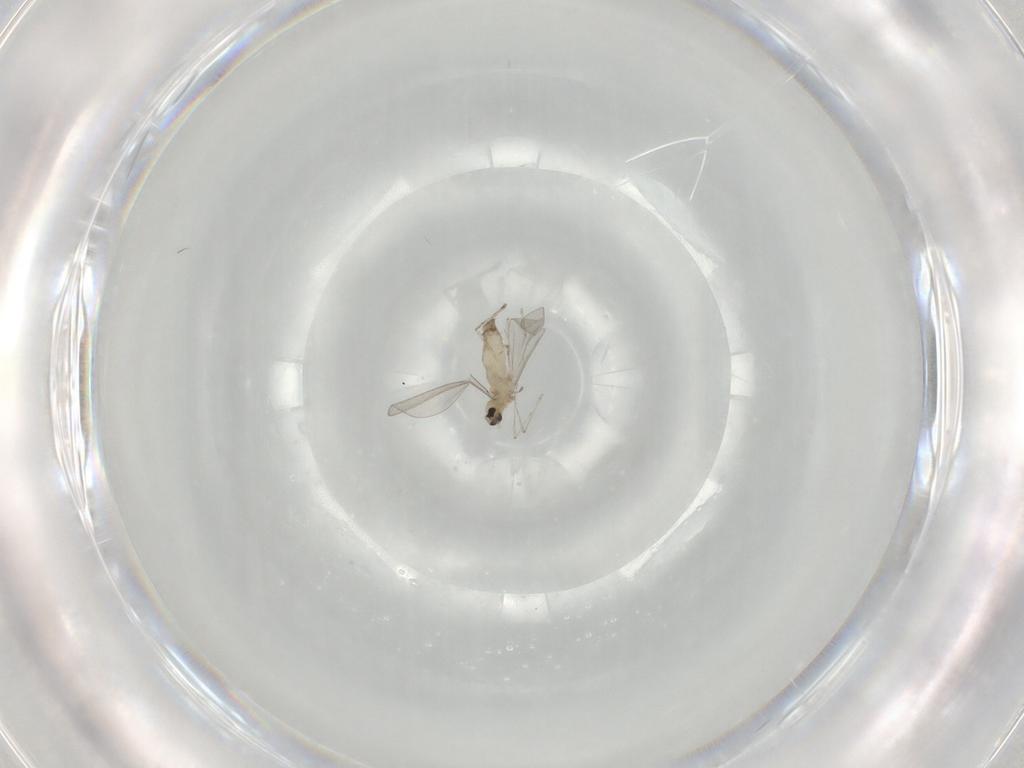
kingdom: Animalia
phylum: Arthropoda
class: Insecta
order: Diptera
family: Cecidomyiidae
